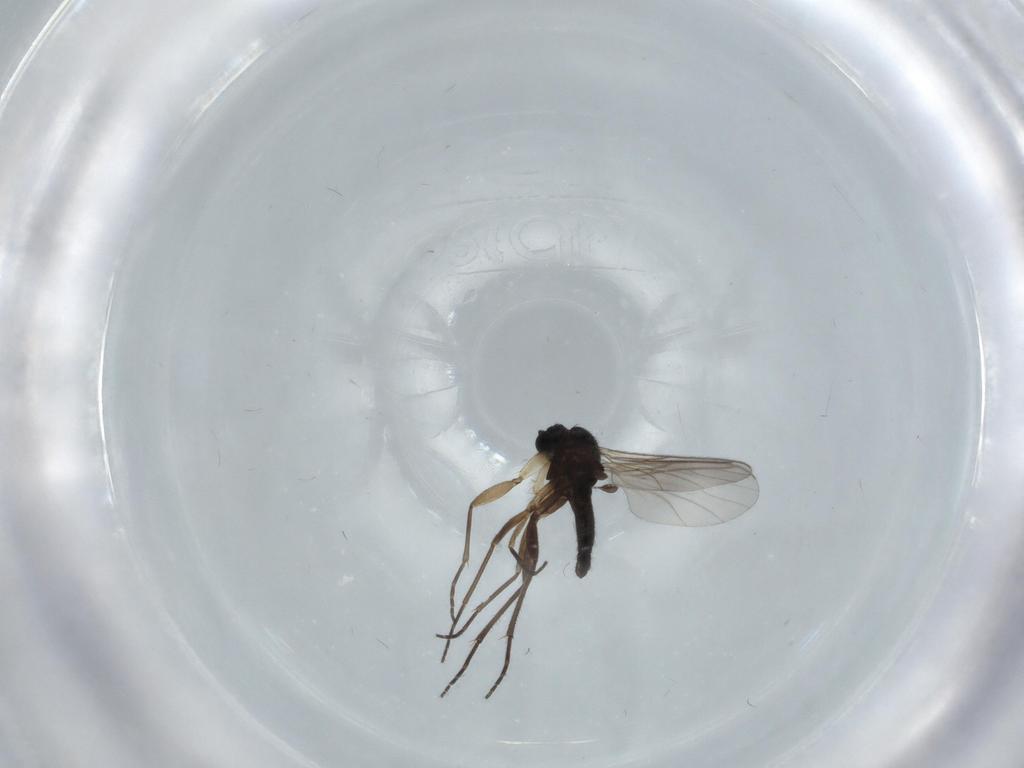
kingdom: Animalia
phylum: Arthropoda
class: Insecta
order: Diptera
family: Sciaridae
